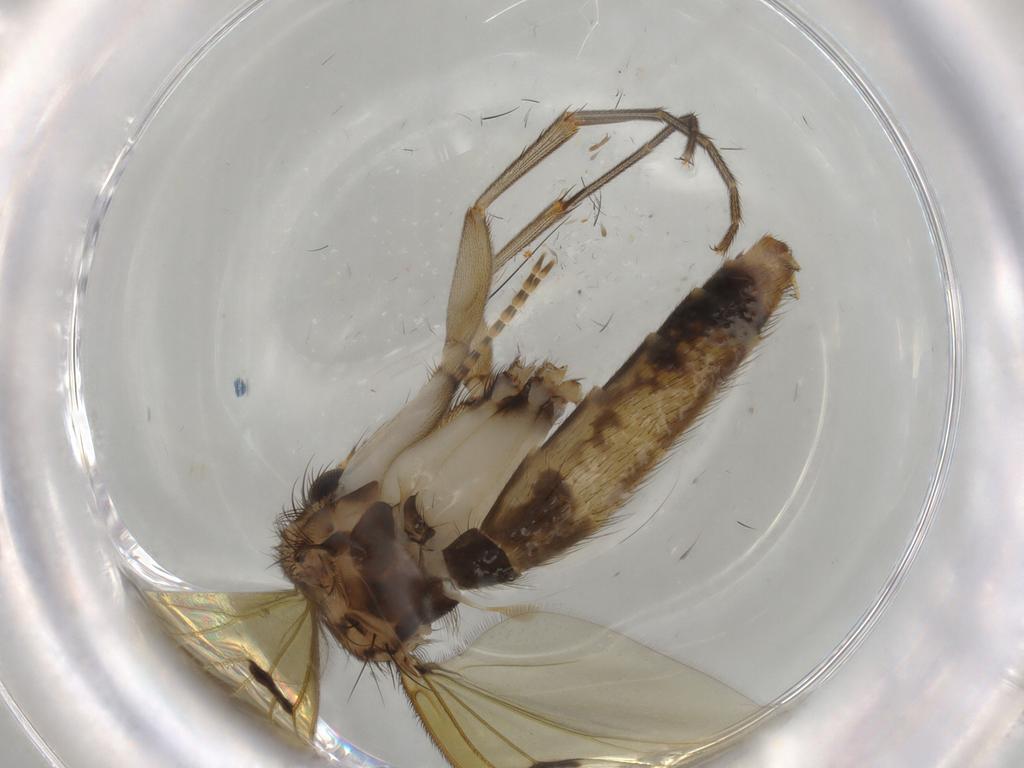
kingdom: Animalia
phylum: Arthropoda
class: Insecta
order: Diptera
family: Mycetophilidae
